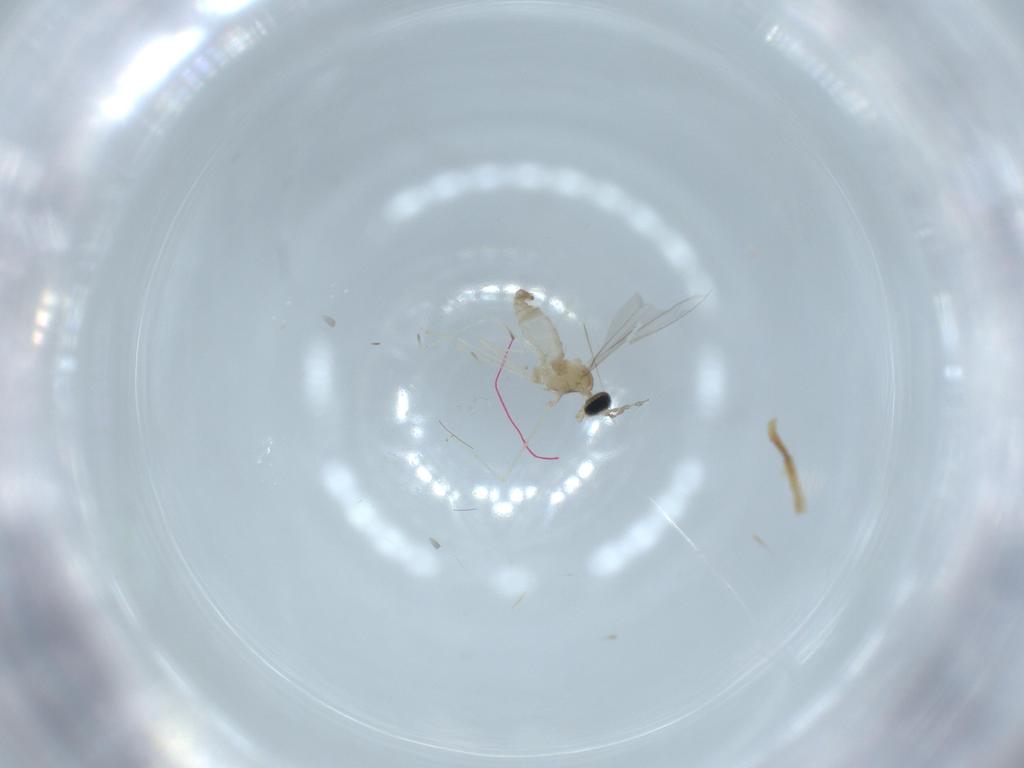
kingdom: Animalia
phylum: Arthropoda
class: Insecta
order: Diptera
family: Cecidomyiidae
